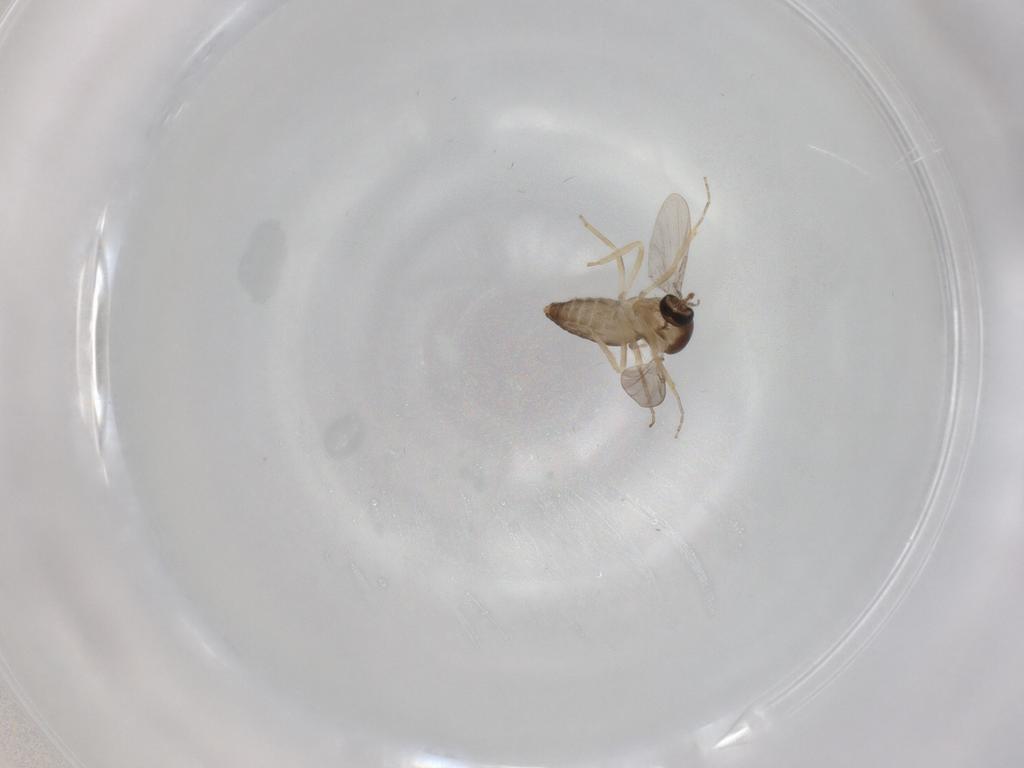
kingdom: Animalia
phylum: Arthropoda
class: Insecta
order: Diptera
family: Ceratopogonidae
